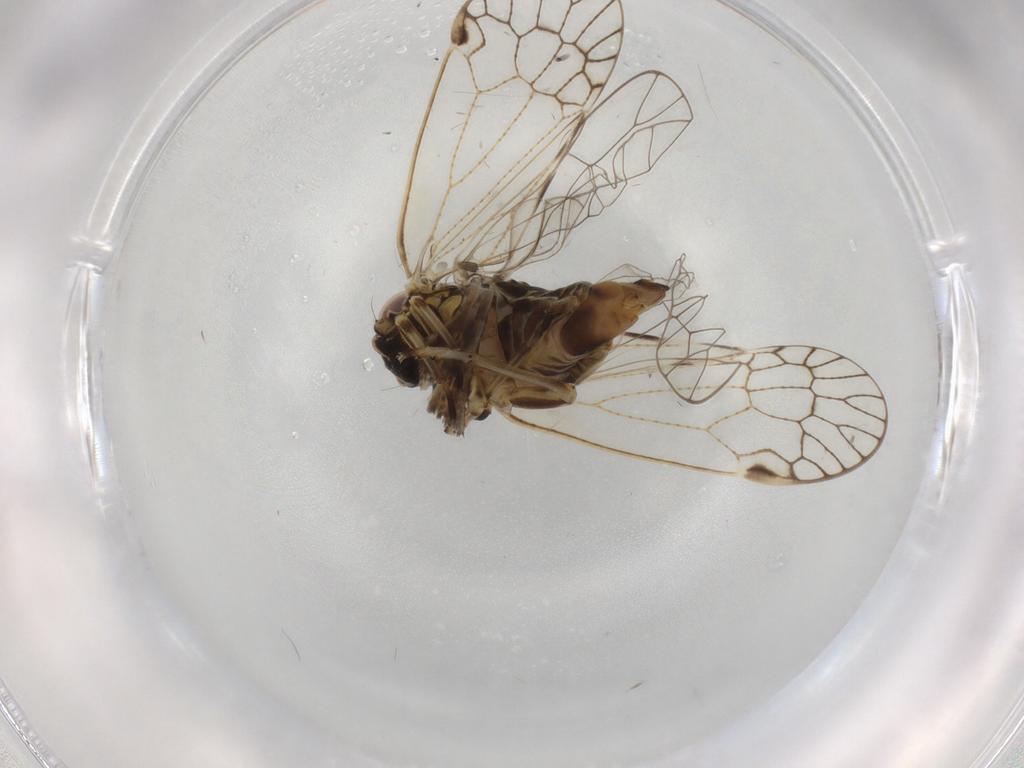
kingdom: Animalia
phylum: Arthropoda
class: Insecta
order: Hemiptera
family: Cixiidae
